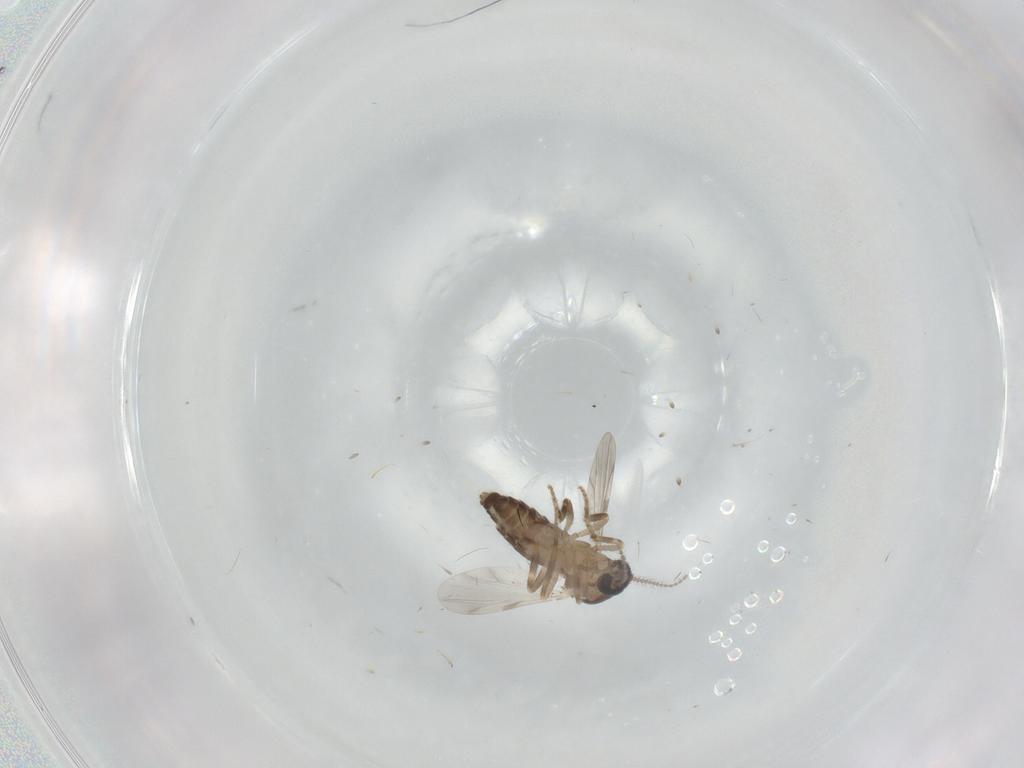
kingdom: Animalia
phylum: Arthropoda
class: Insecta
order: Diptera
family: Ceratopogonidae
